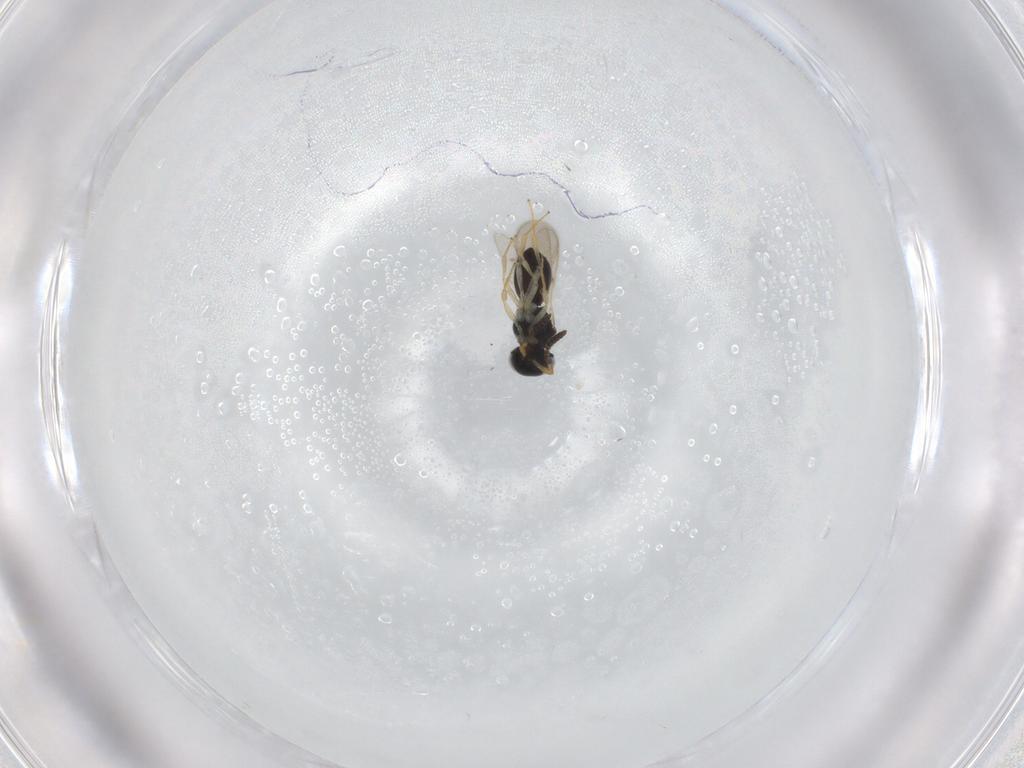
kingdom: Animalia
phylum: Arthropoda
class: Insecta
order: Hymenoptera
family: Scelionidae
